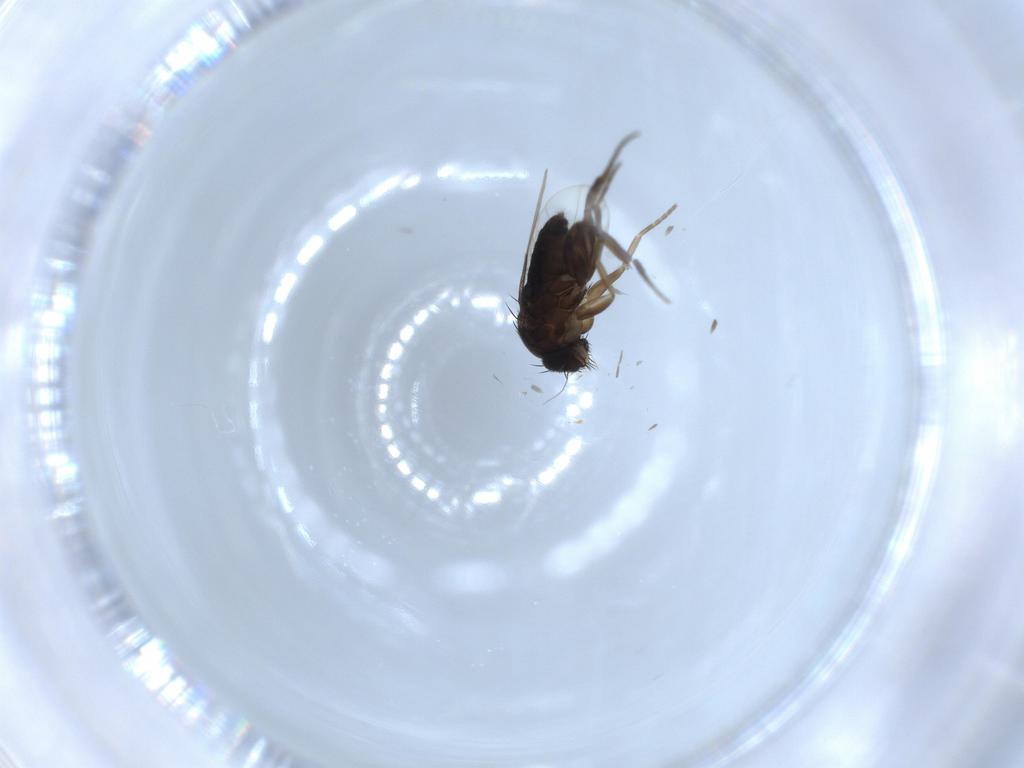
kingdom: Animalia
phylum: Arthropoda
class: Insecta
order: Diptera
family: Phoridae
